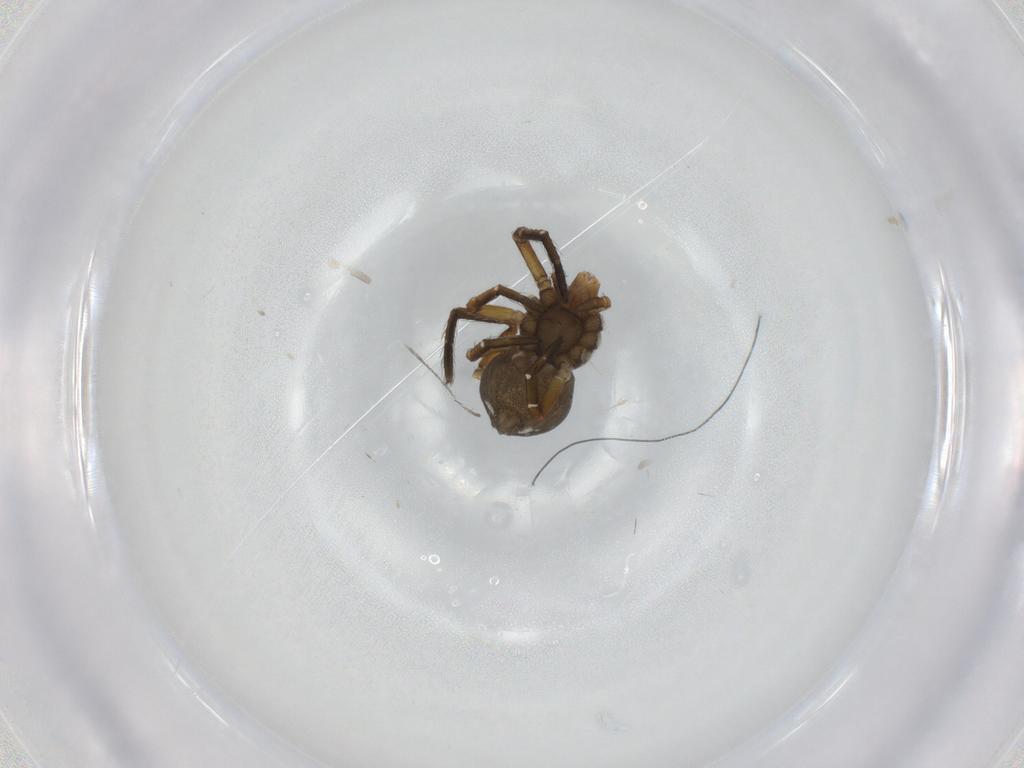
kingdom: Animalia
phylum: Arthropoda
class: Arachnida
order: Araneae
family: Thomisidae
